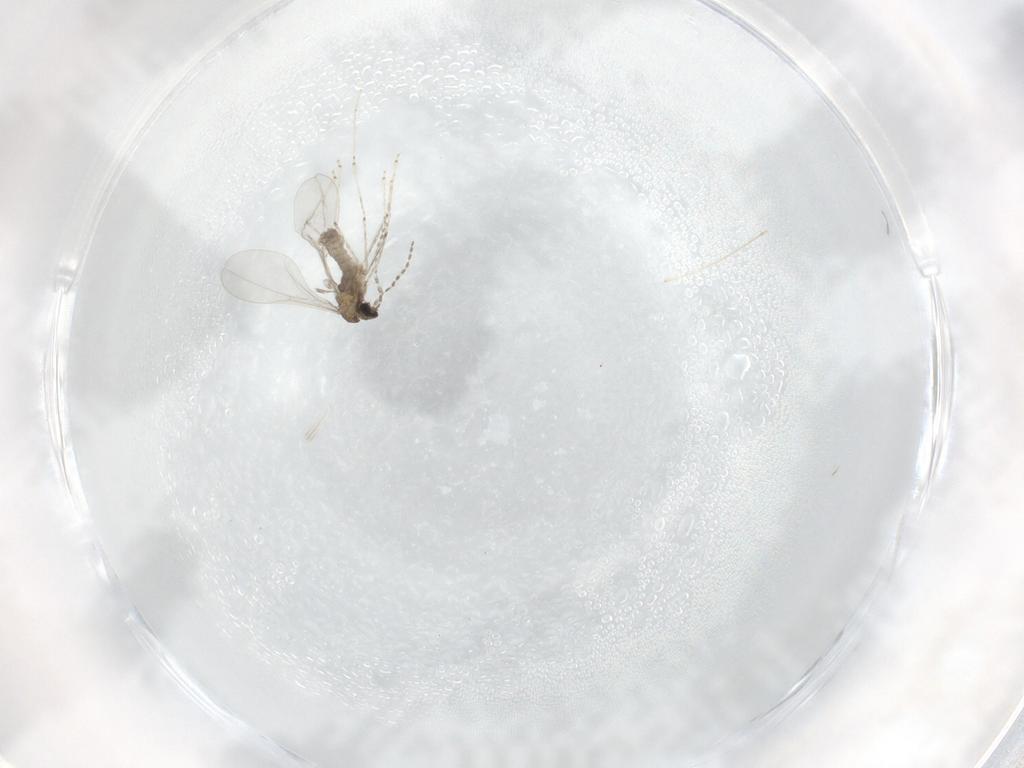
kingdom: Animalia
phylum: Arthropoda
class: Insecta
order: Diptera
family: Cecidomyiidae
